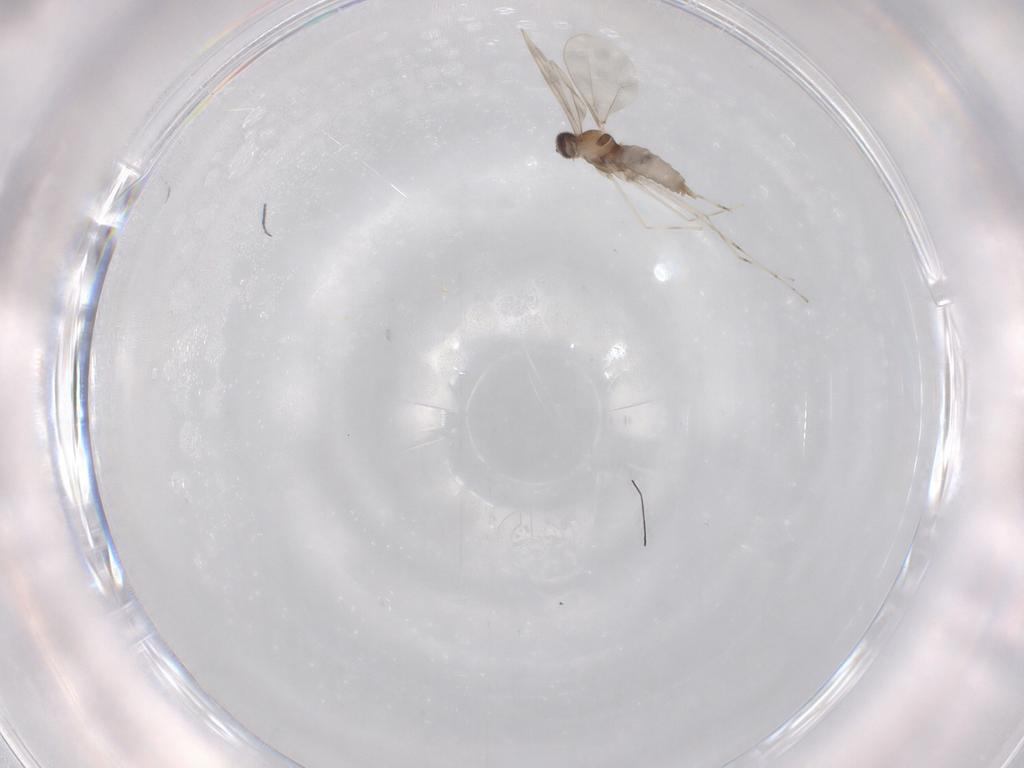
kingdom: Animalia
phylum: Arthropoda
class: Insecta
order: Diptera
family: Cecidomyiidae
